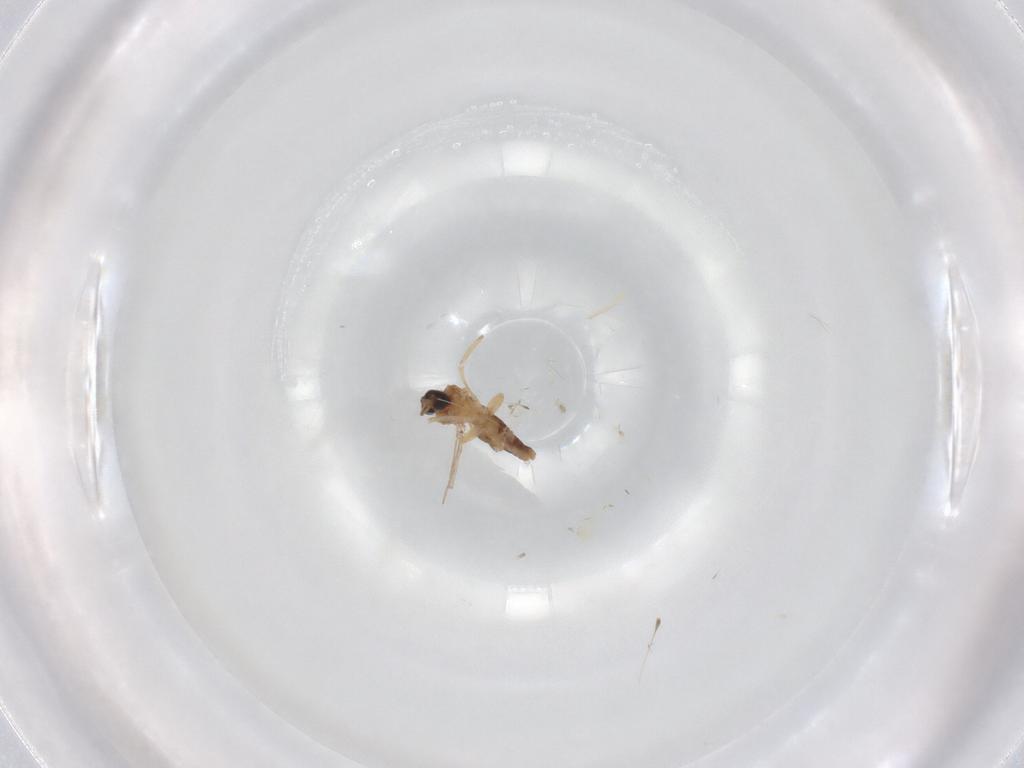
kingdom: Animalia
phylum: Arthropoda
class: Insecta
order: Diptera
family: Ceratopogonidae
